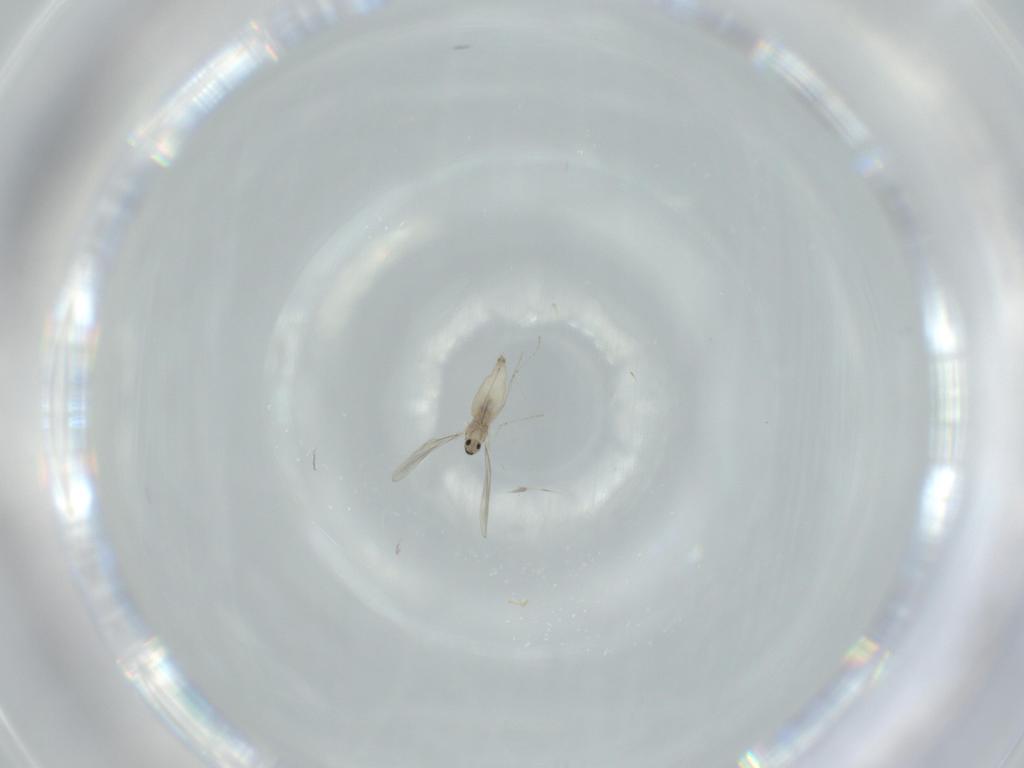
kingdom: Animalia
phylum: Arthropoda
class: Insecta
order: Diptera
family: Cecidomyiidae
